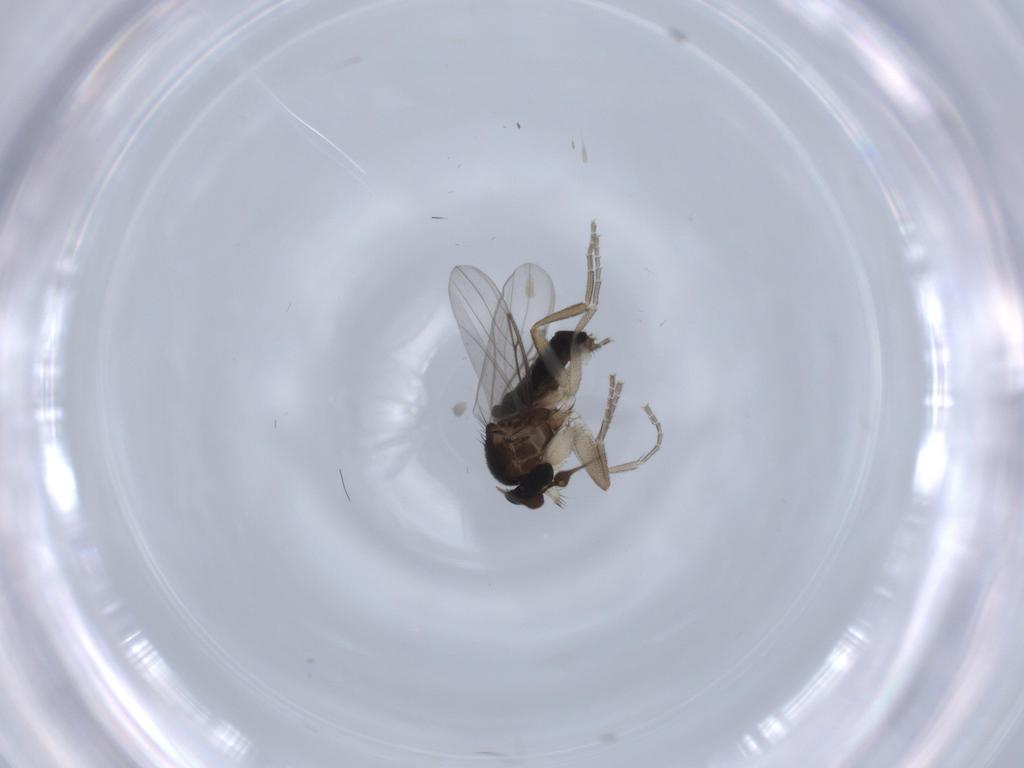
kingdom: Animalia
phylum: Arthropoda
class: Insecta
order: Diptera
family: Phoridae
